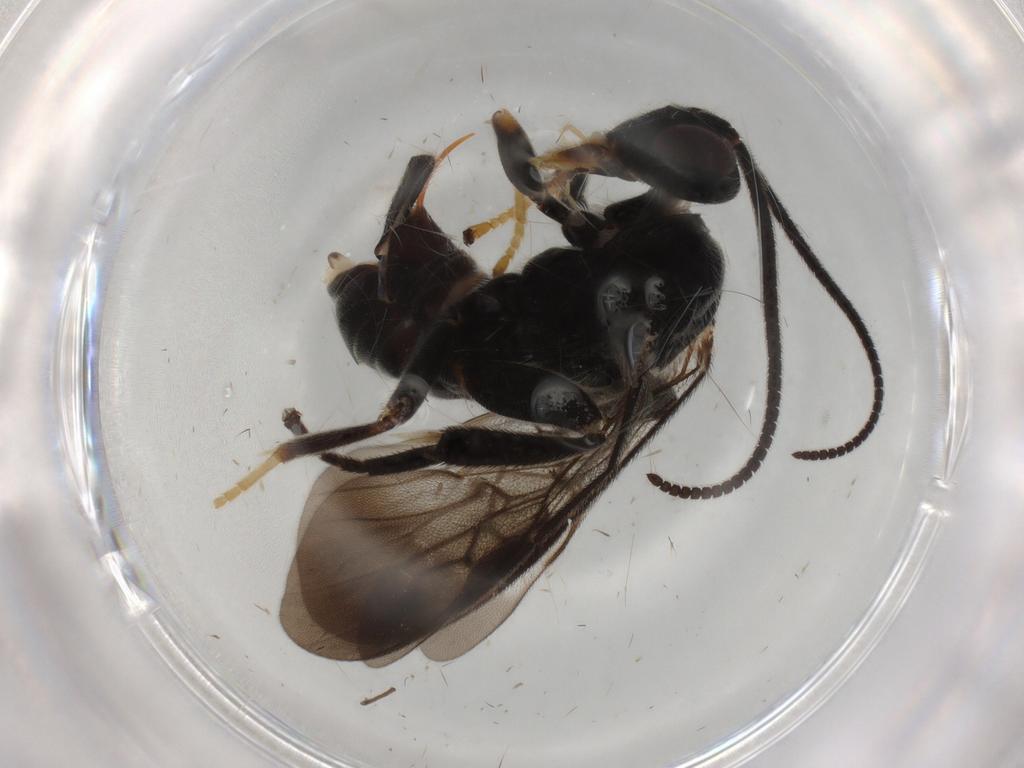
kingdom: Animalia
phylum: Arthropoda
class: Insecta
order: Hymenoptera
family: Braconidae
